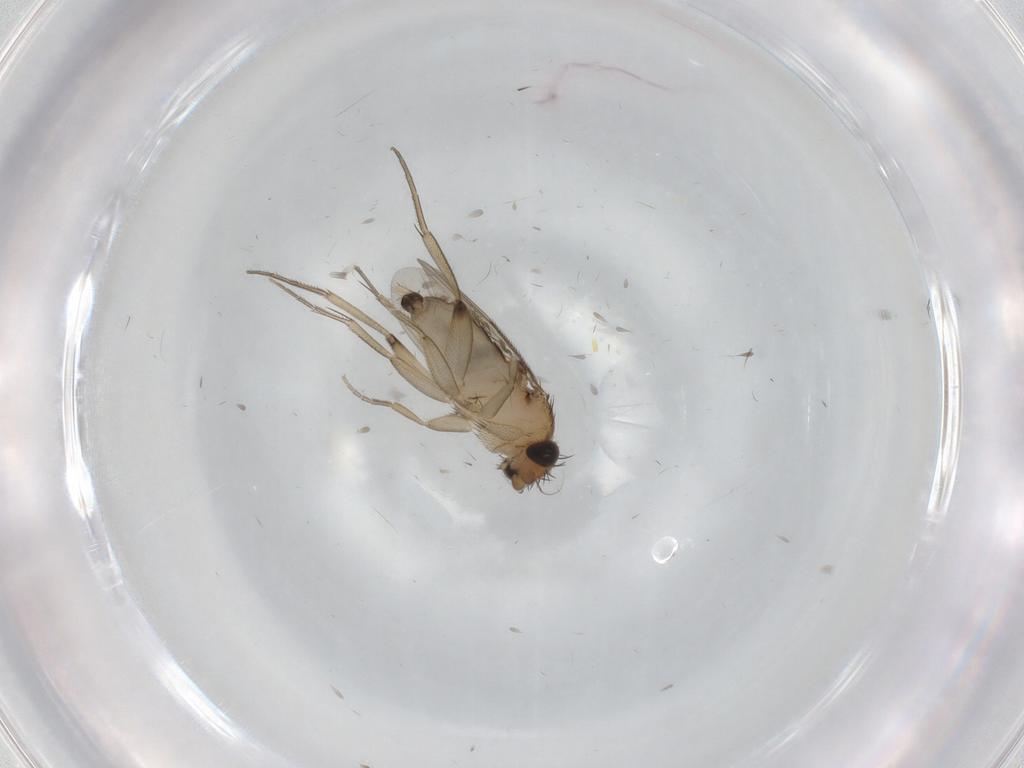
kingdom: Animalia
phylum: Arthropoda
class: Insecta
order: Diptera
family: Phoridae
